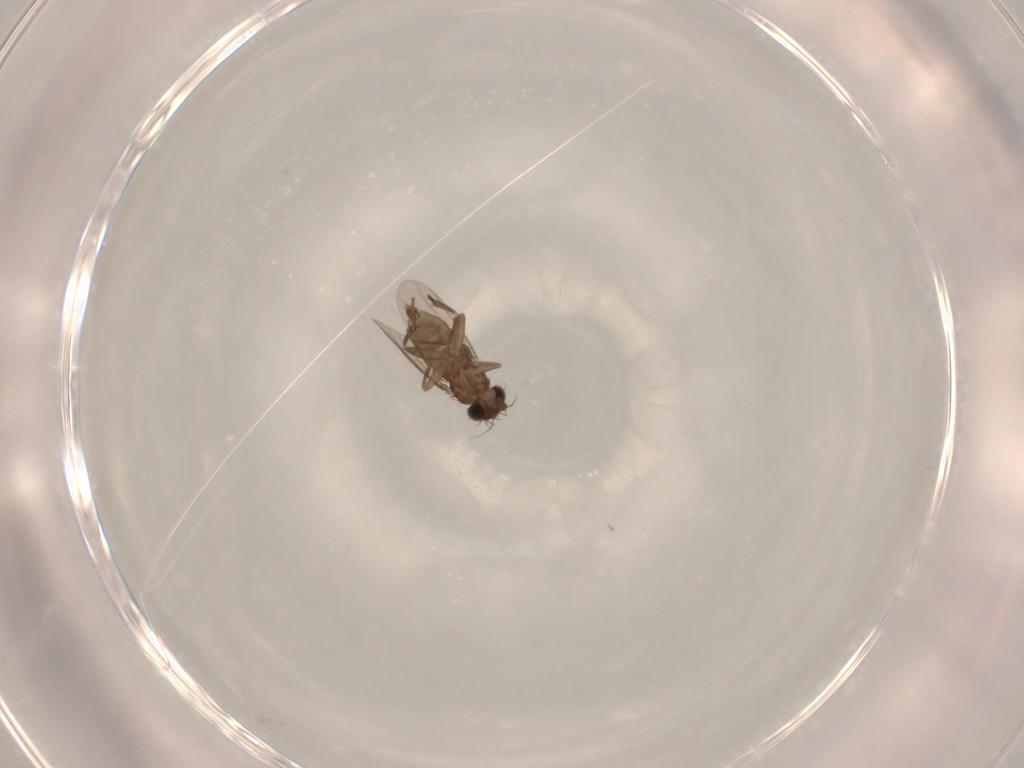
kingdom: Animalia
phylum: Arthropoda
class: Insecta
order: Diptera
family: Cecidomyiidae
